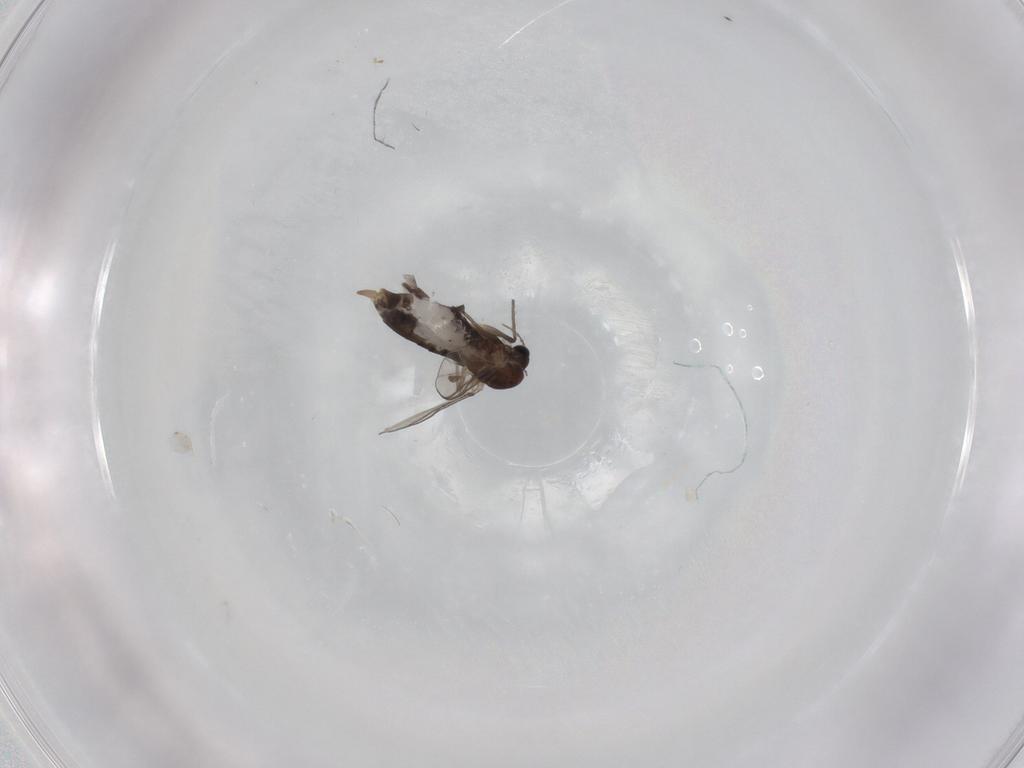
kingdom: Animalia
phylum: Arthropoda
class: Insecta
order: Diptera
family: Chironomidae
